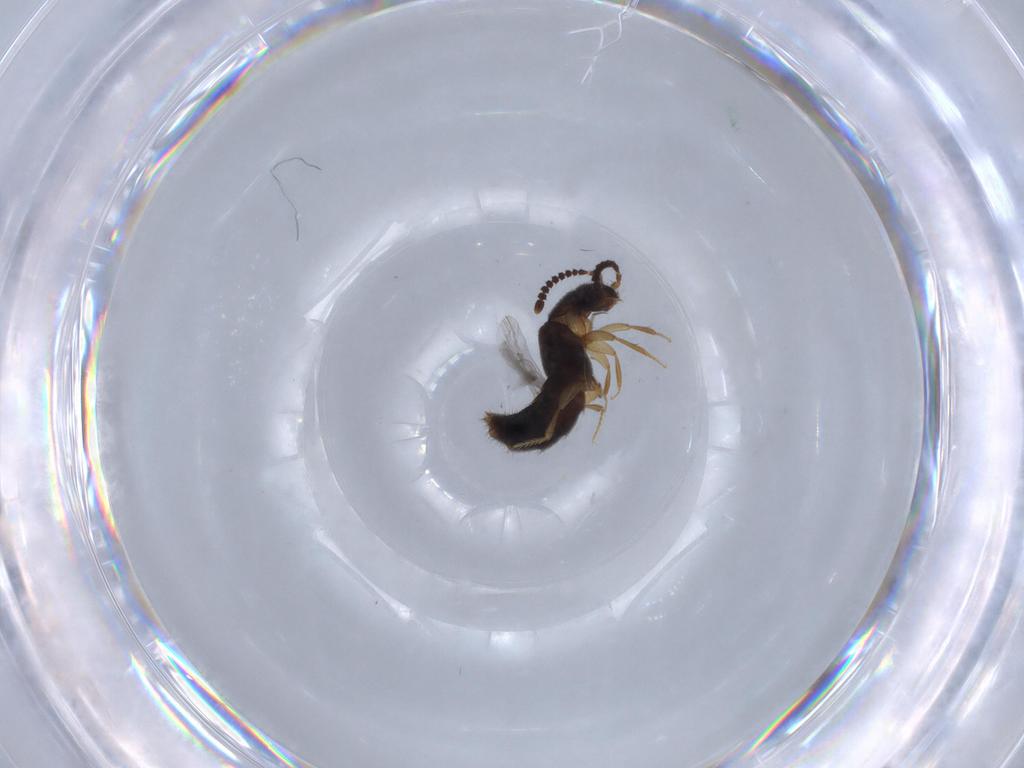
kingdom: Animalia
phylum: Arthropoda
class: Insecta
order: Coleoptera
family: Staphylinidae
